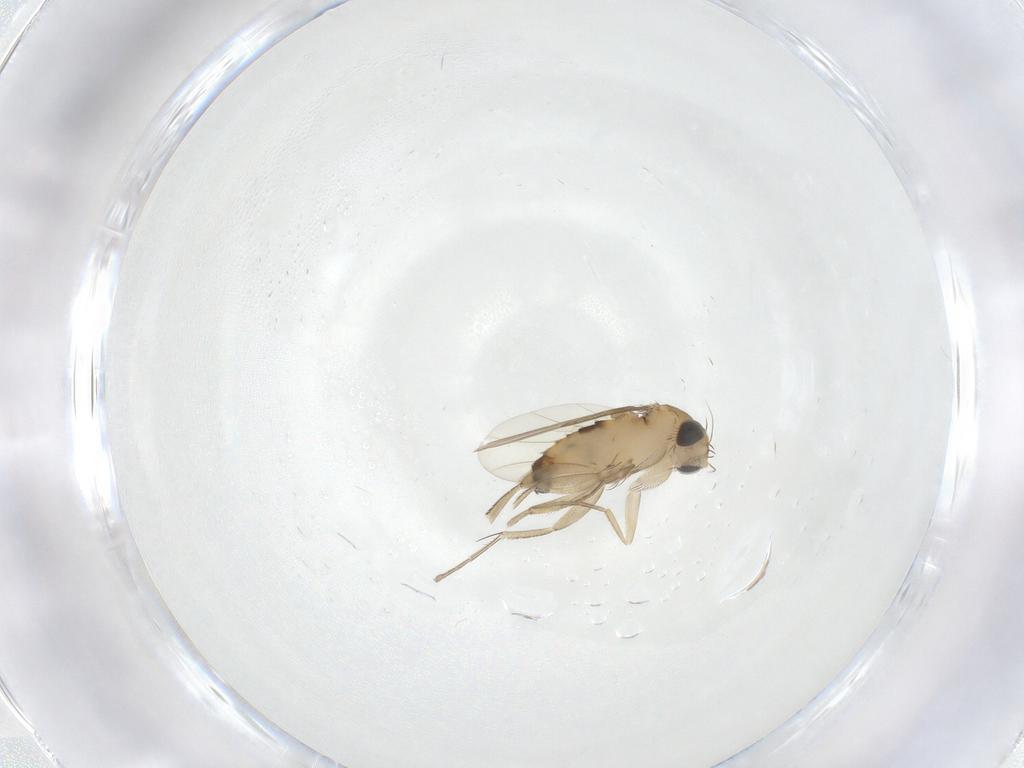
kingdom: Animalia
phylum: Arthropoda
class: Insecta
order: Diptera
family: Phoridae
